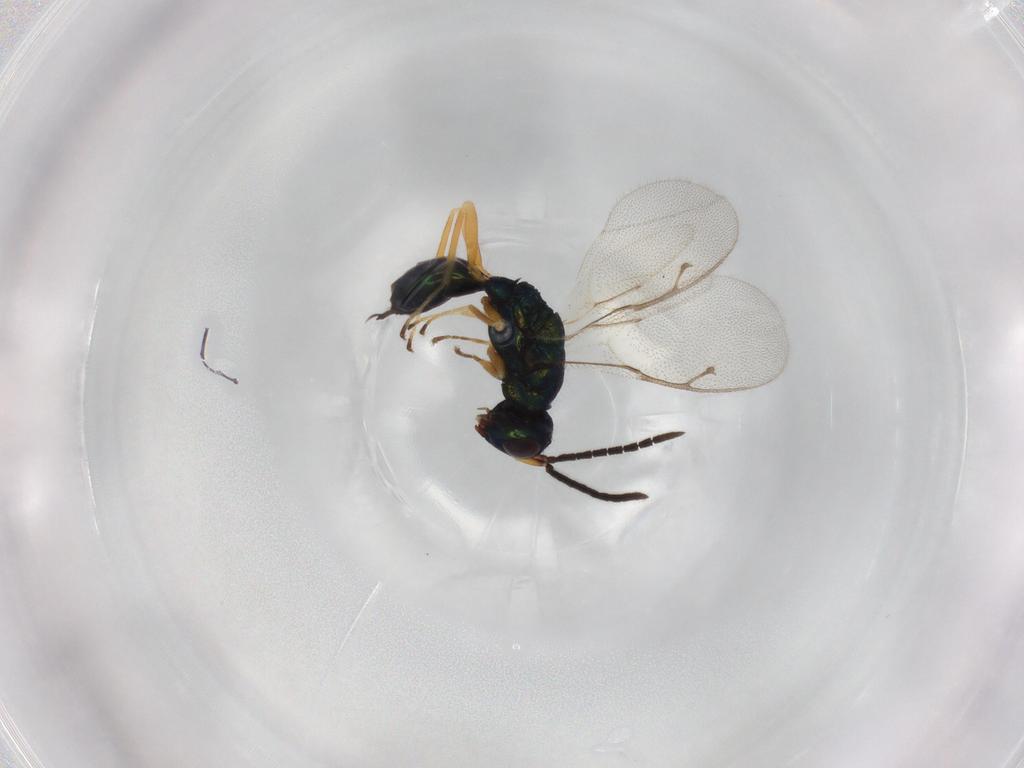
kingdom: Animalia
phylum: Arthropoda
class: Insecta
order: Hymenoptera
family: Pteromalidae
